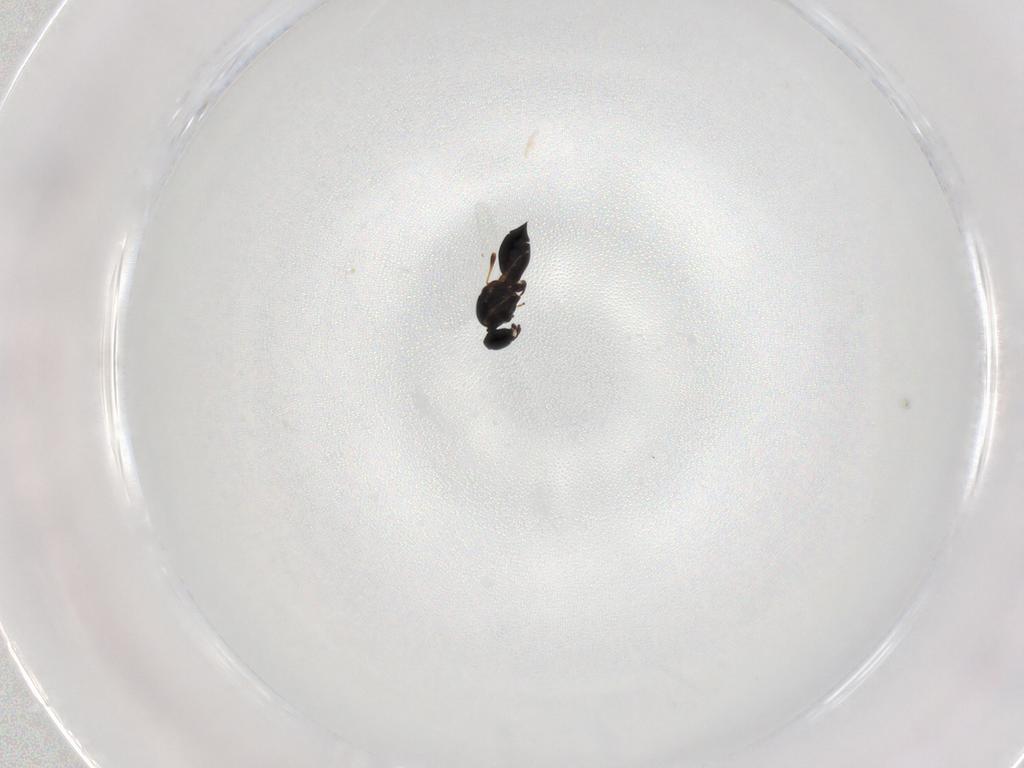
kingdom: Animalia
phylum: Arthropoda
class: Insecta
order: Hymenoptera
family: Platygastridae
